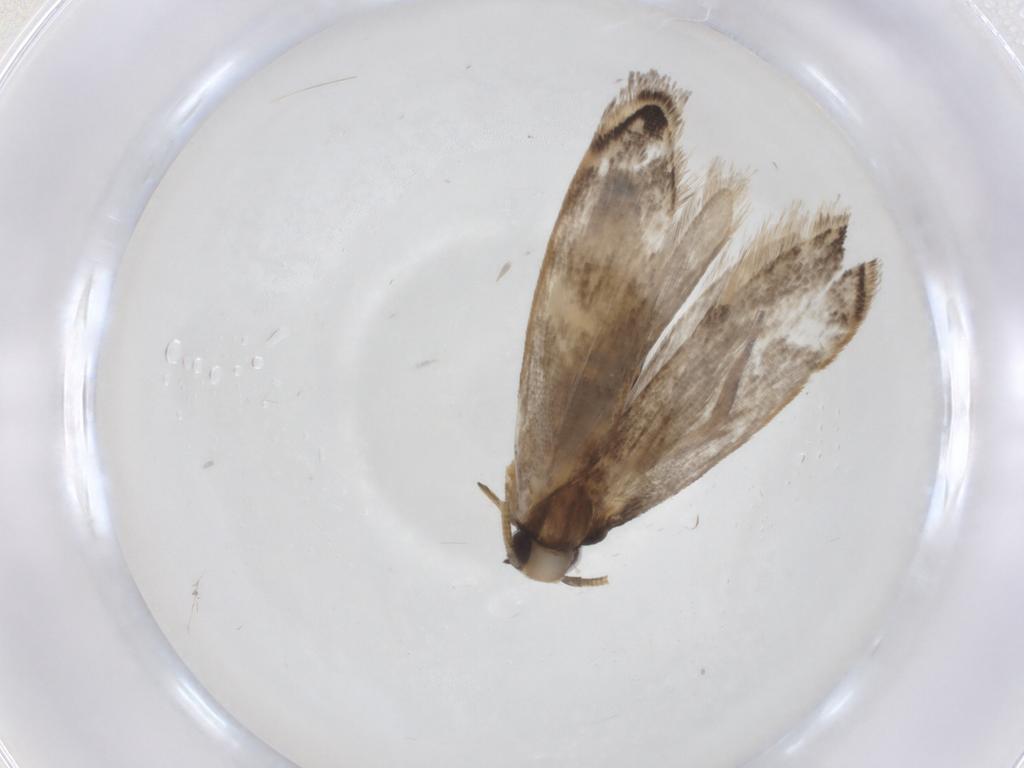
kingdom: Animalia
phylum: Arthropoda
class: Insecta
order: Lepidoptera
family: Tineidae
